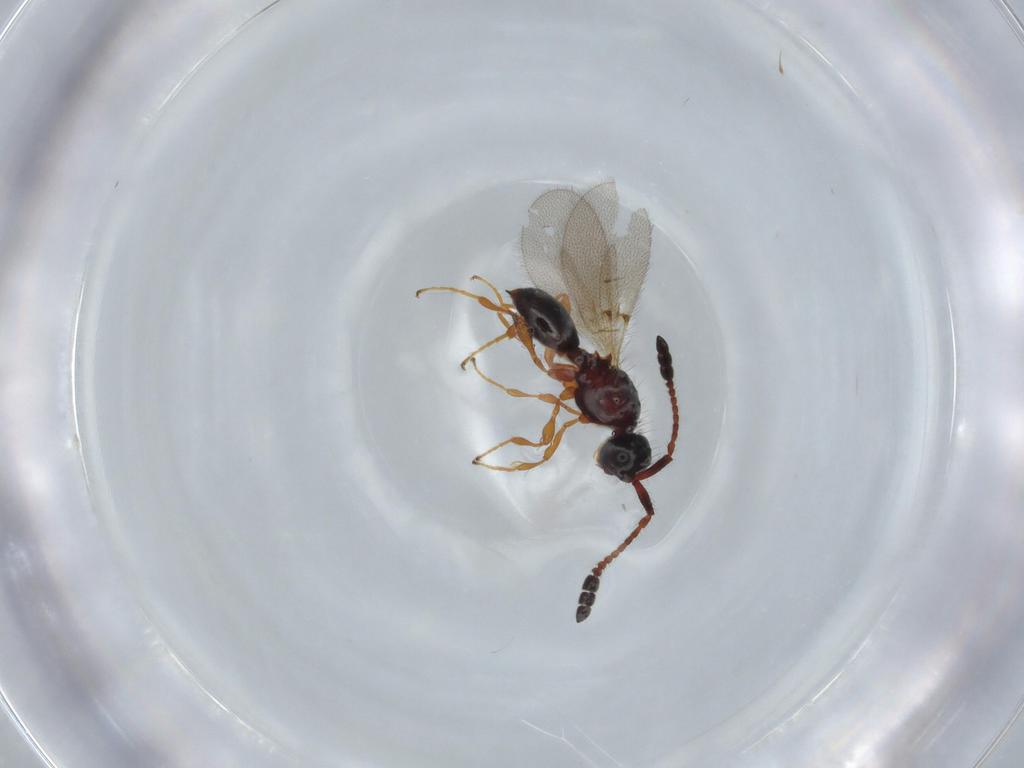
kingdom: Animalia
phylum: Arthropoda
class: Insecta
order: Hymenoptera
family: Diapriidae
